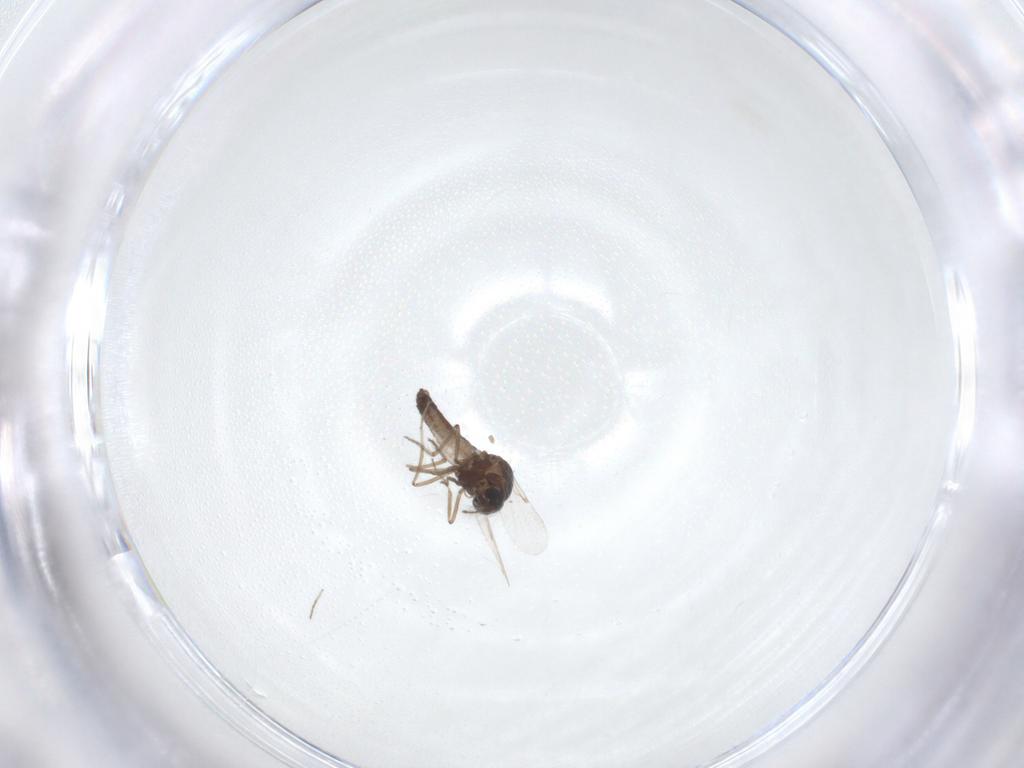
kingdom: Animalia
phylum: Arthropoda
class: Insecta
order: Diptera
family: Ceratopogonidae
